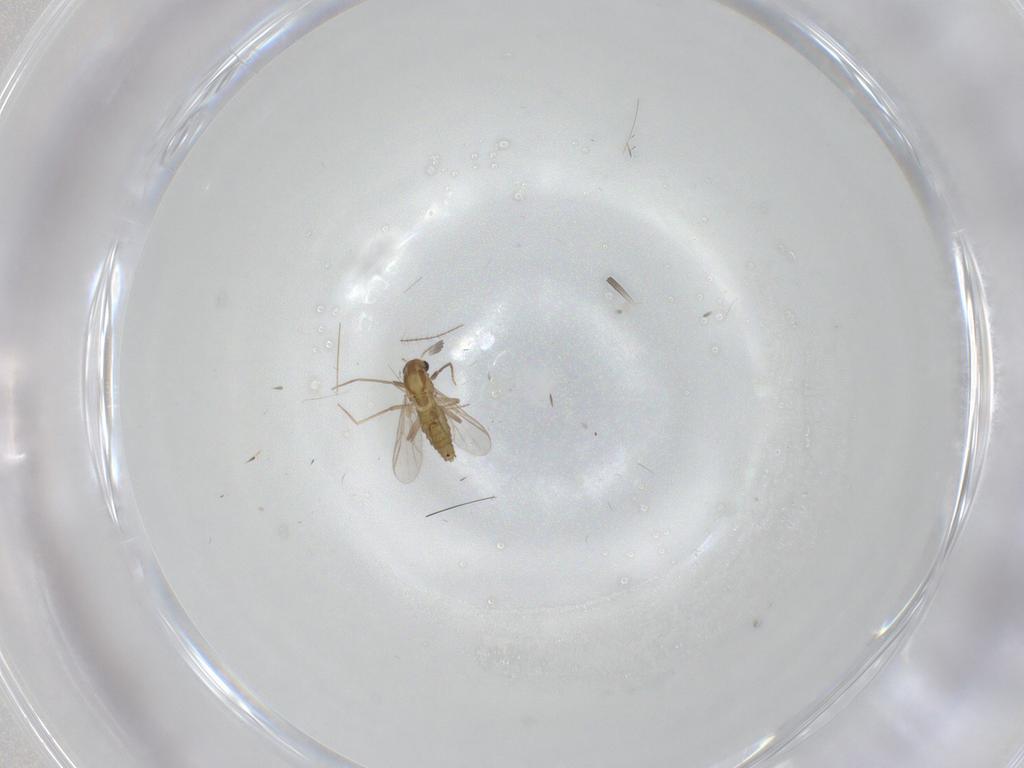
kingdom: Animalia
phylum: Arthropoda
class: Insecta
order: Diptera
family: Chironomidae
